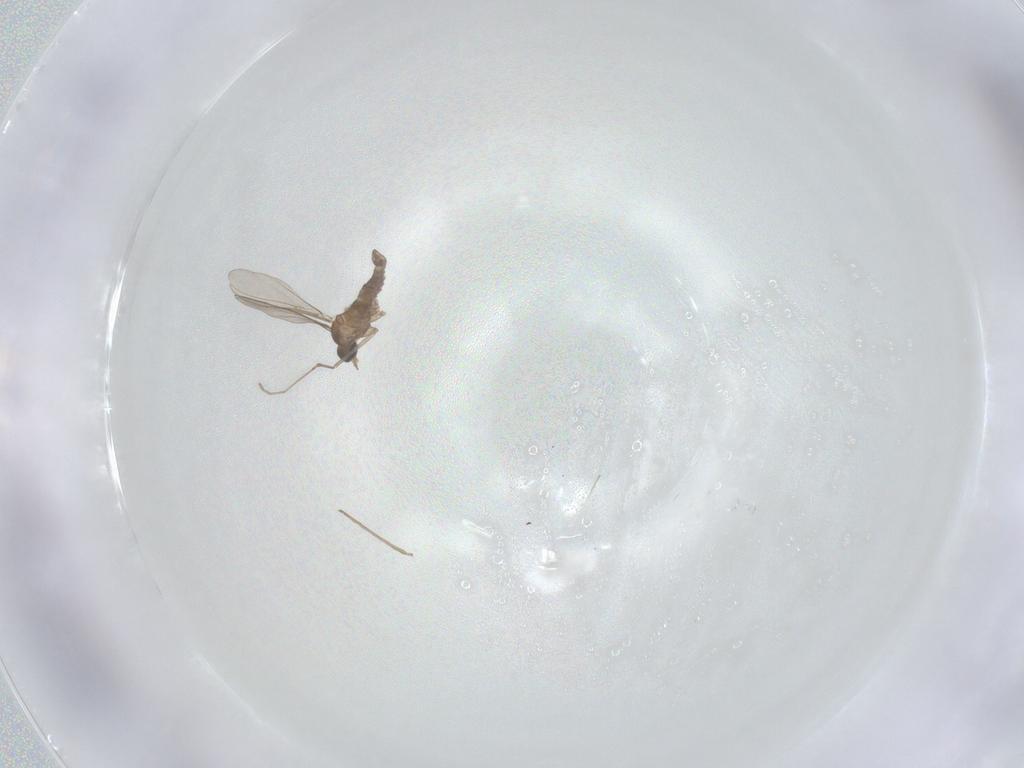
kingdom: Animalia
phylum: Arthropoda
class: Insecta
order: Diptera
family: Cecidomyiidae
